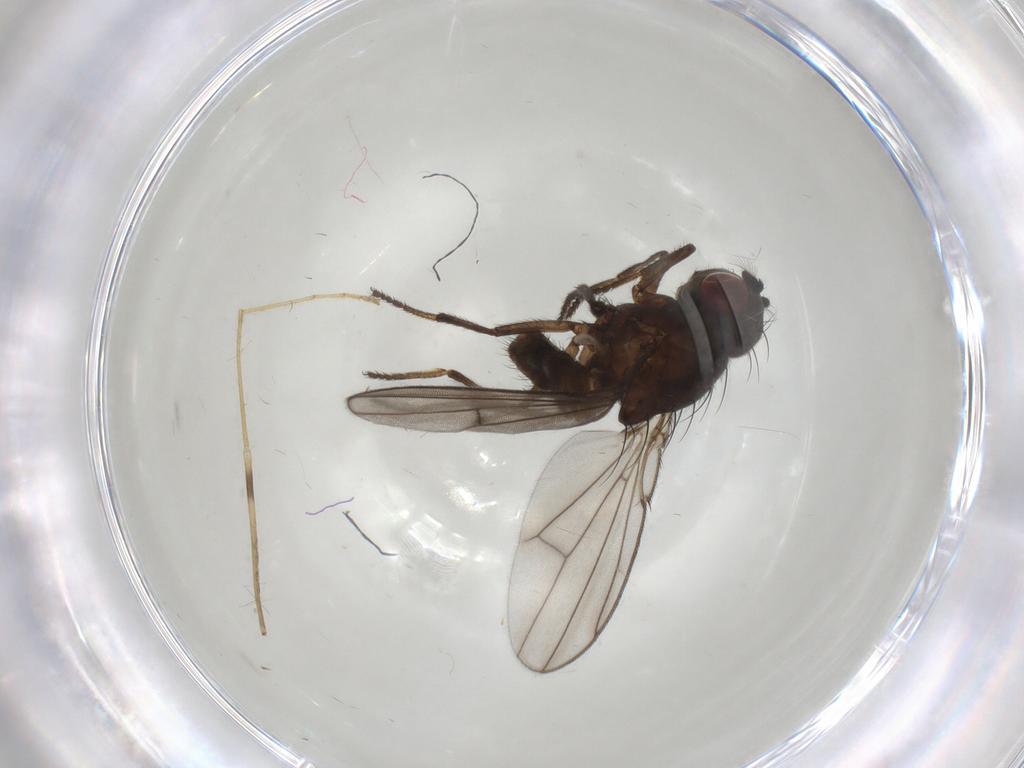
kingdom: Animalia
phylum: Arthropoda
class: Insecta
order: Diptera
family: Ephydridae
